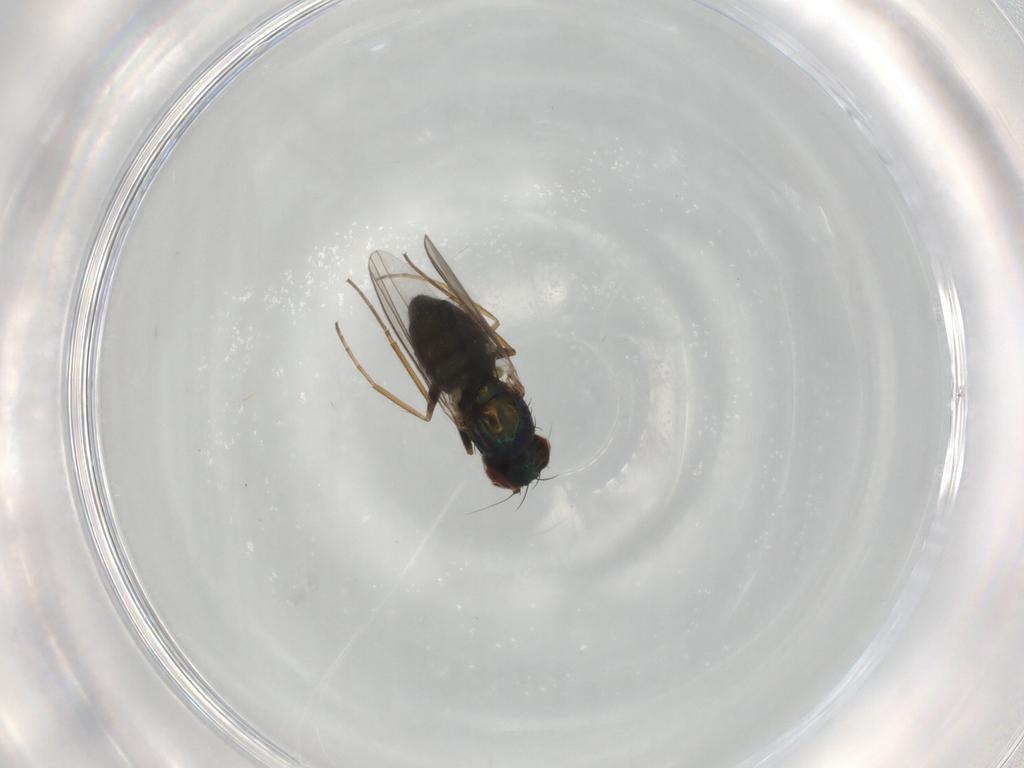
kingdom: Animalia
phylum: Arthropoda
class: Insecta
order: Diptera
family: Dolichopodidae
